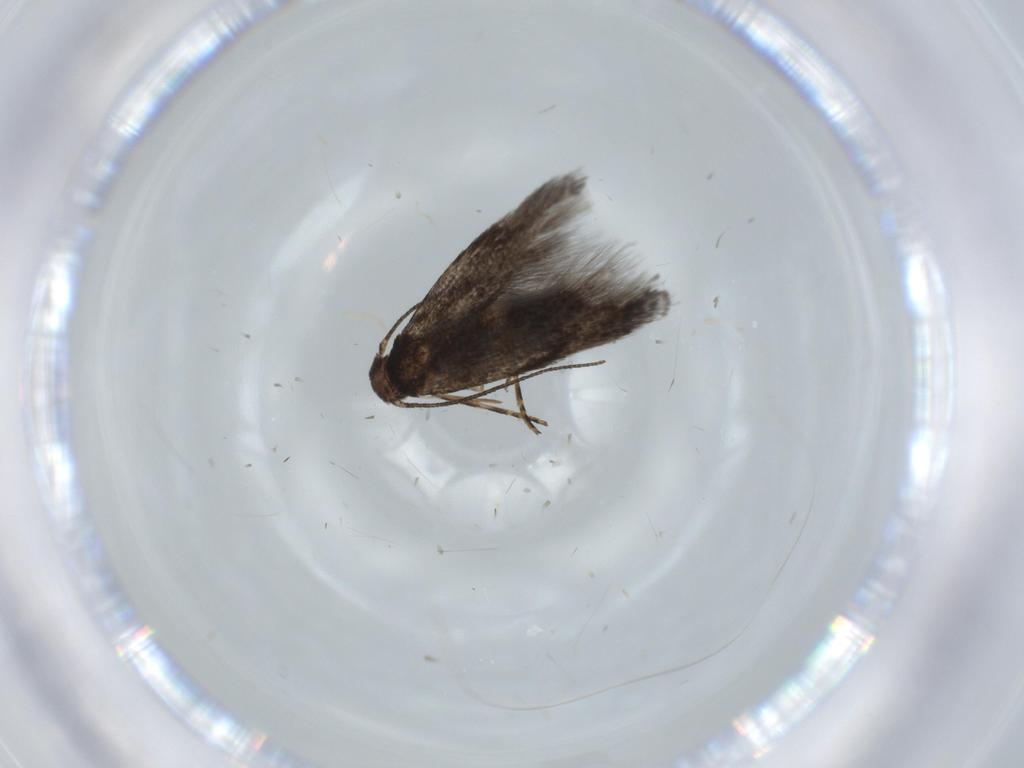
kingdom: Animalia
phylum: Arthropoda
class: Insecta
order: Lepidoptera
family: Elachistidae
